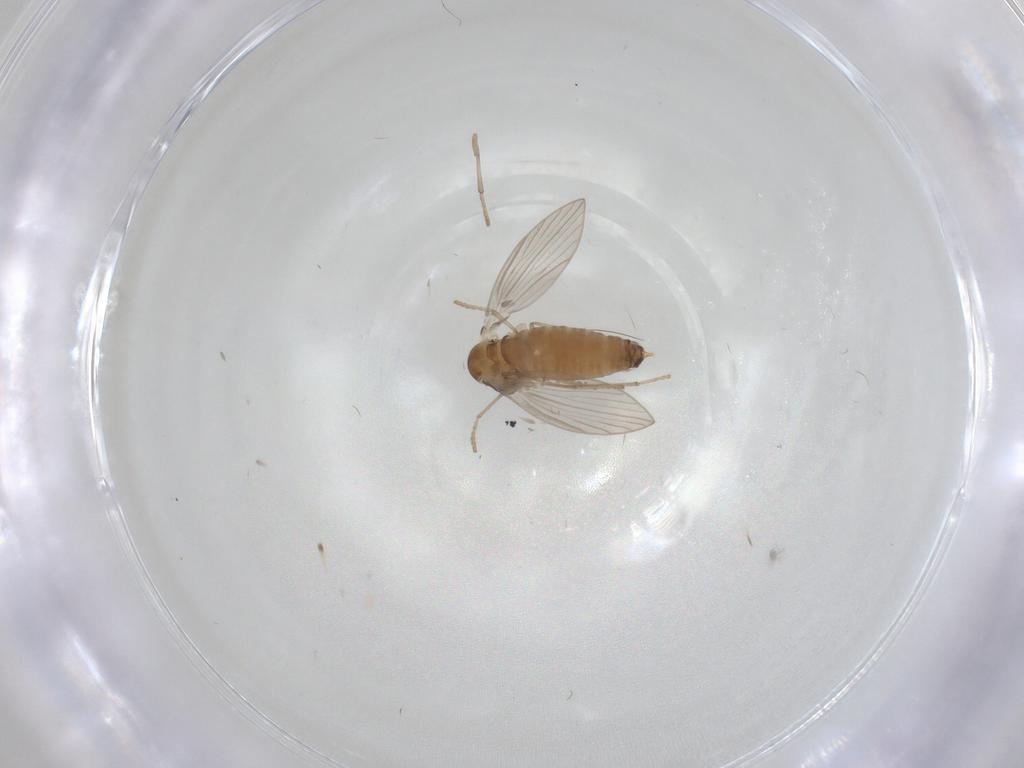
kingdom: Animalia
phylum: Arthropoda
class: Insecta
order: Diptera
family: Psychodidae
